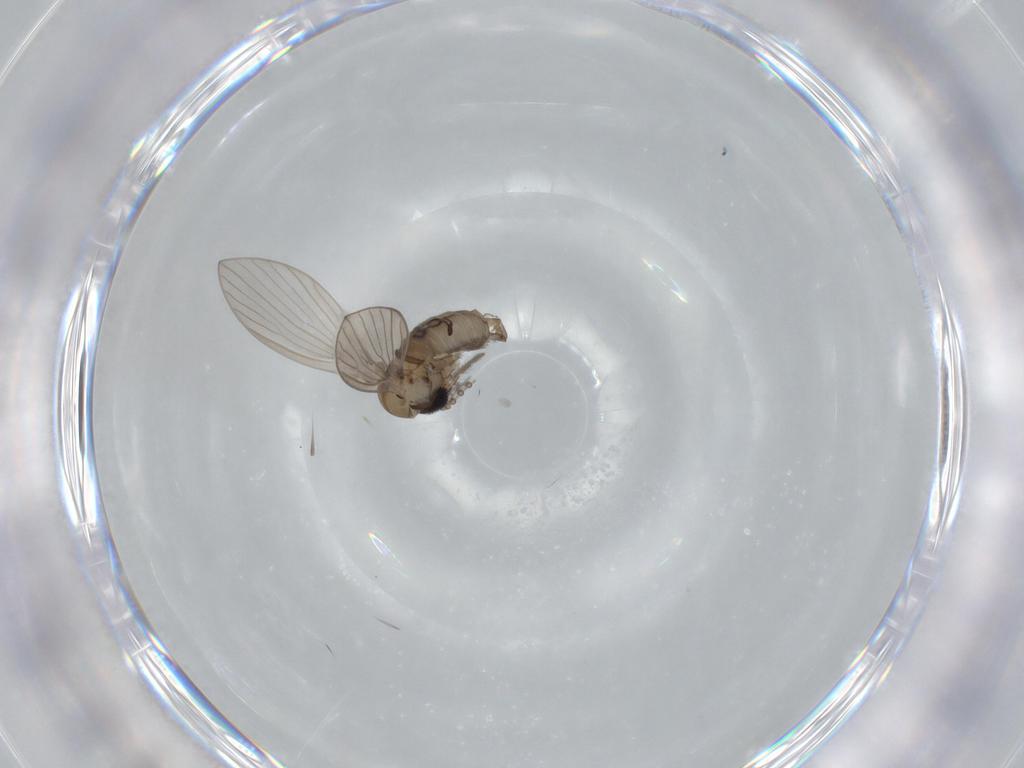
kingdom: Animalia
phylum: Arthropoda
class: Insecta
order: Diptera
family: Psychodidae
